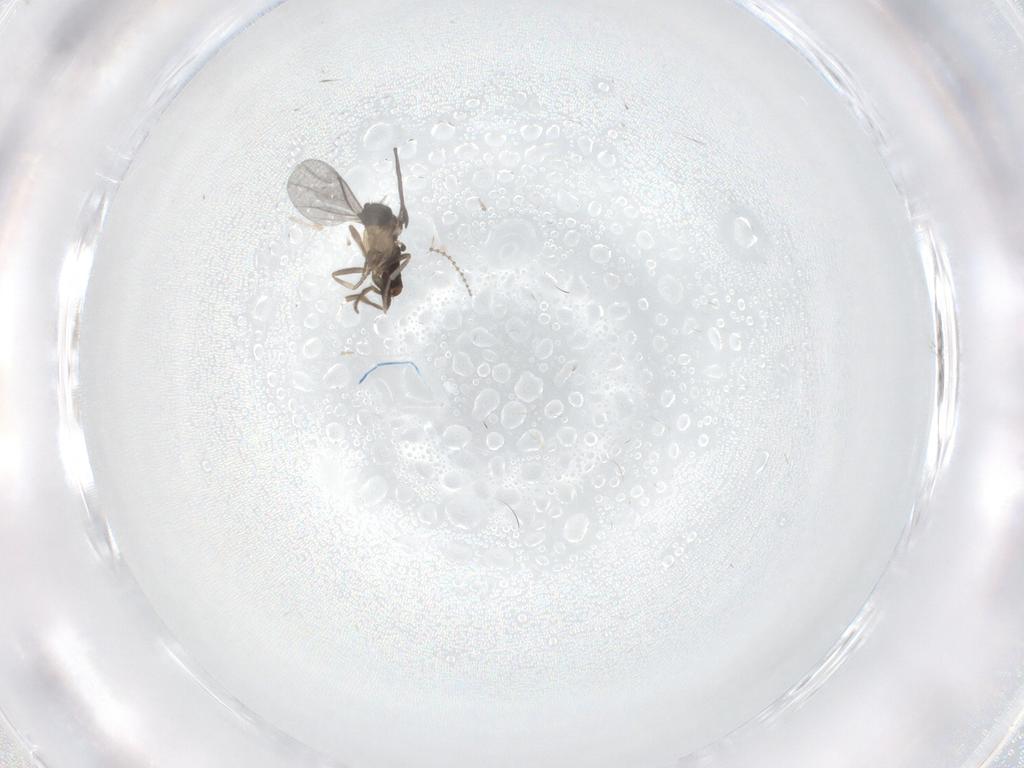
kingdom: Animalia
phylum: Arthropoda
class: Insecta
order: Diptera
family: Cecidomyiidae
